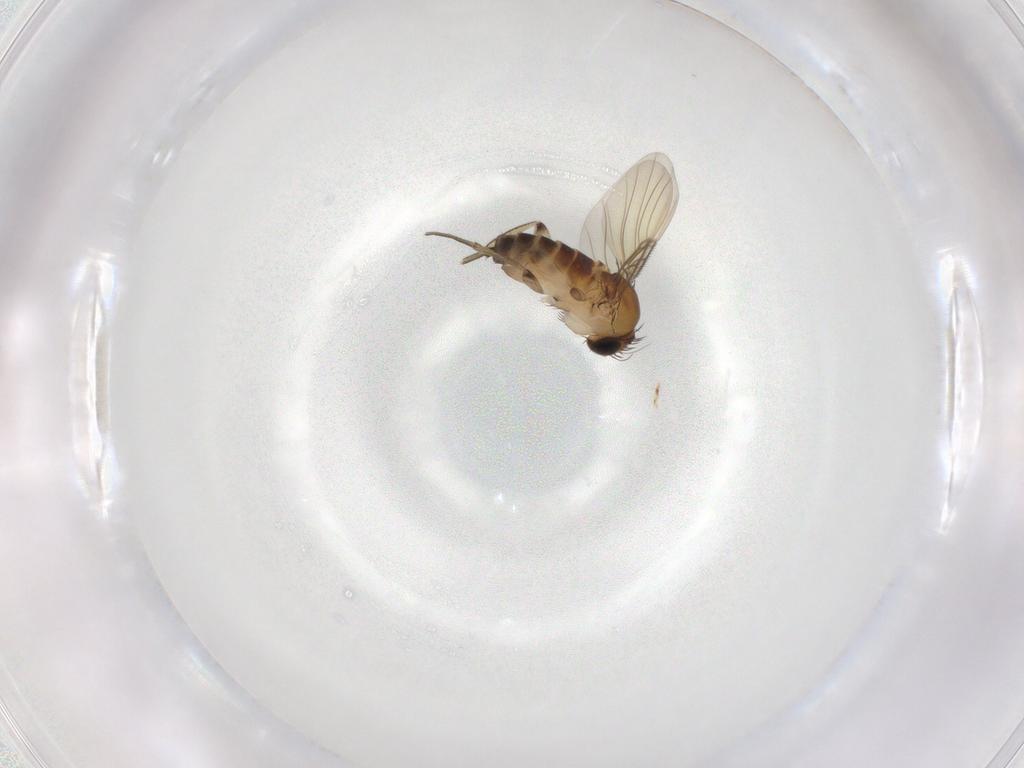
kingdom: Animalia
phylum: Arthropoda
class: Insecta
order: Diptera
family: Phoridae
